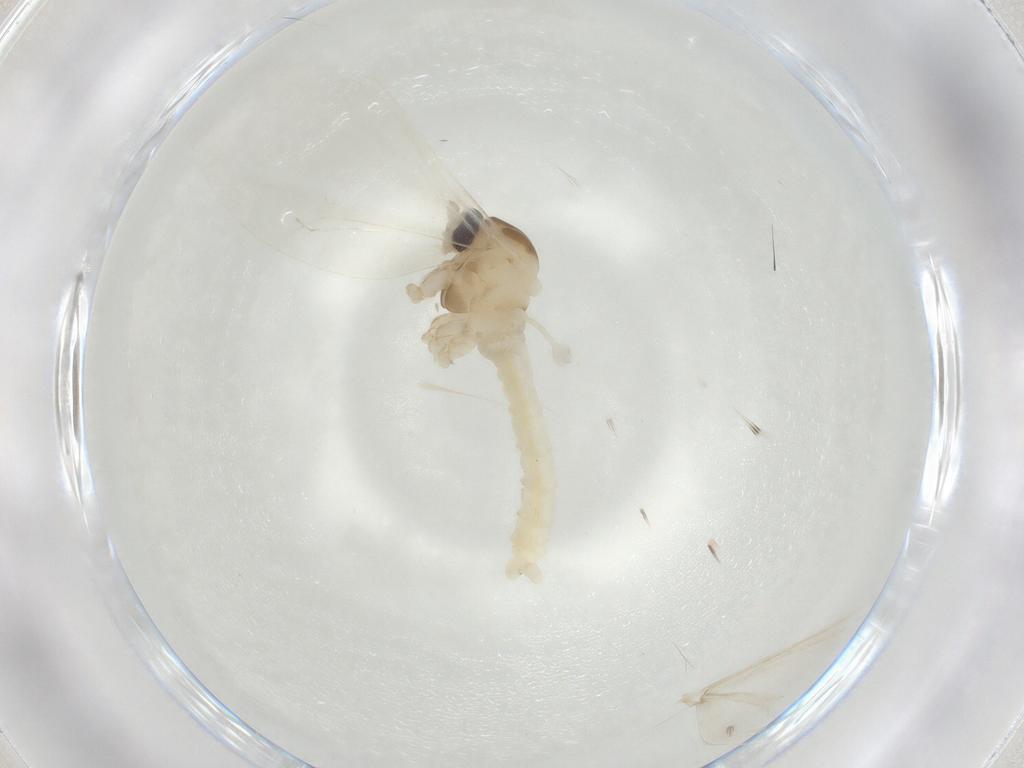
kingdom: Animalia
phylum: Arthropoda
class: Insecta
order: Diptera
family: Cecidomyiidae
